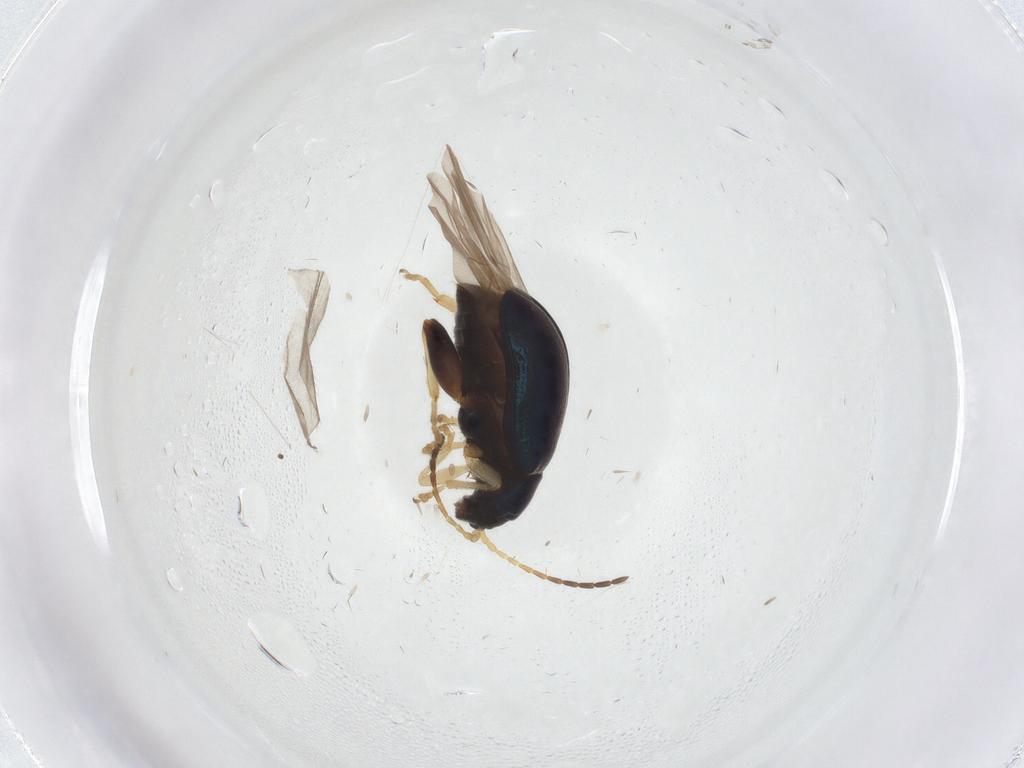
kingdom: Animalia
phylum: Arthropoda
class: Insecta
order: Coleoptera
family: Chrysomelidae
